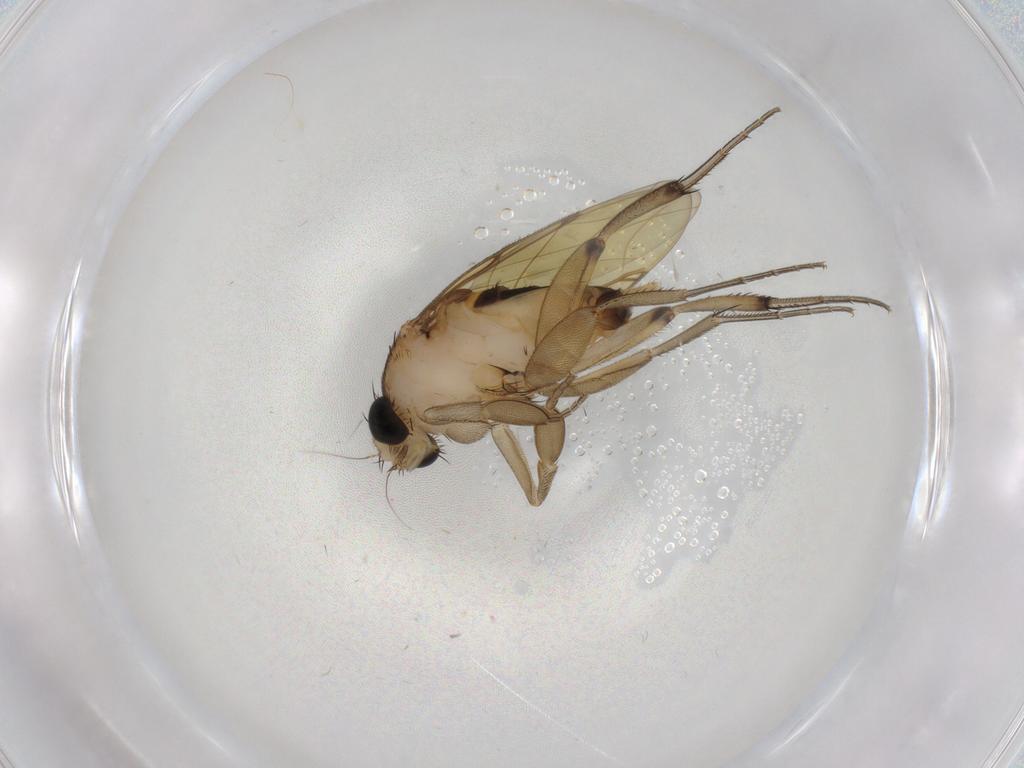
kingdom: Animalia
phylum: Arthropoda
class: Insecta
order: Diptera
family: Phoridae
